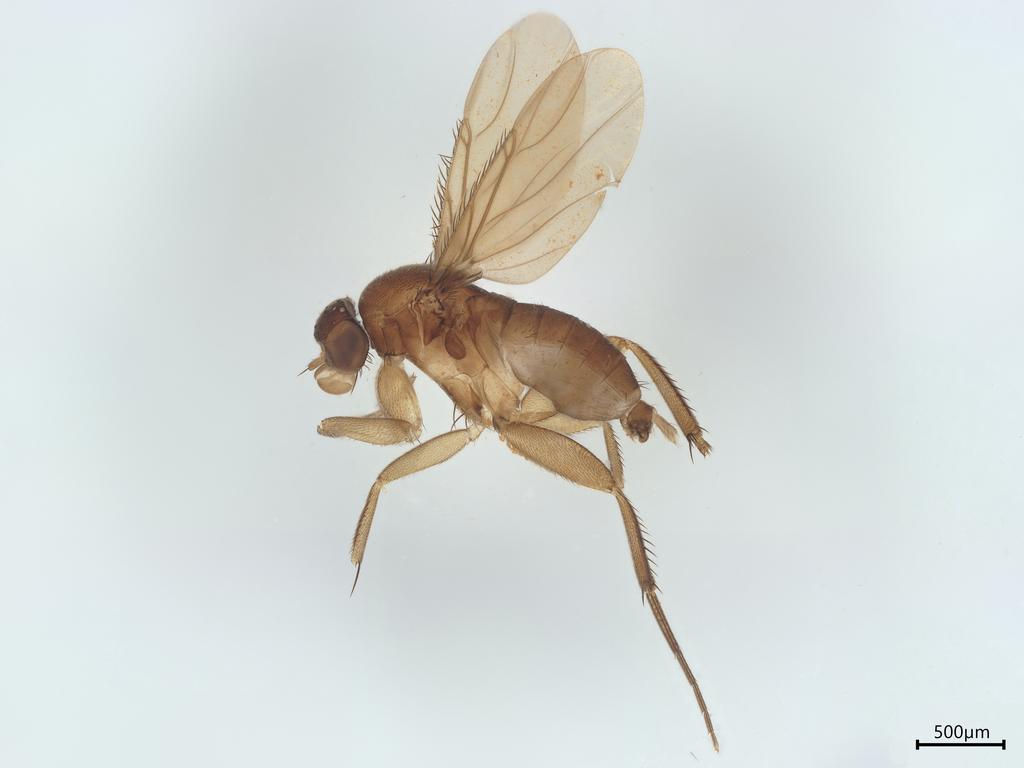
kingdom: Animalia
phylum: Arthropoda
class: Insecta
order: Diptera
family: Phoridae
